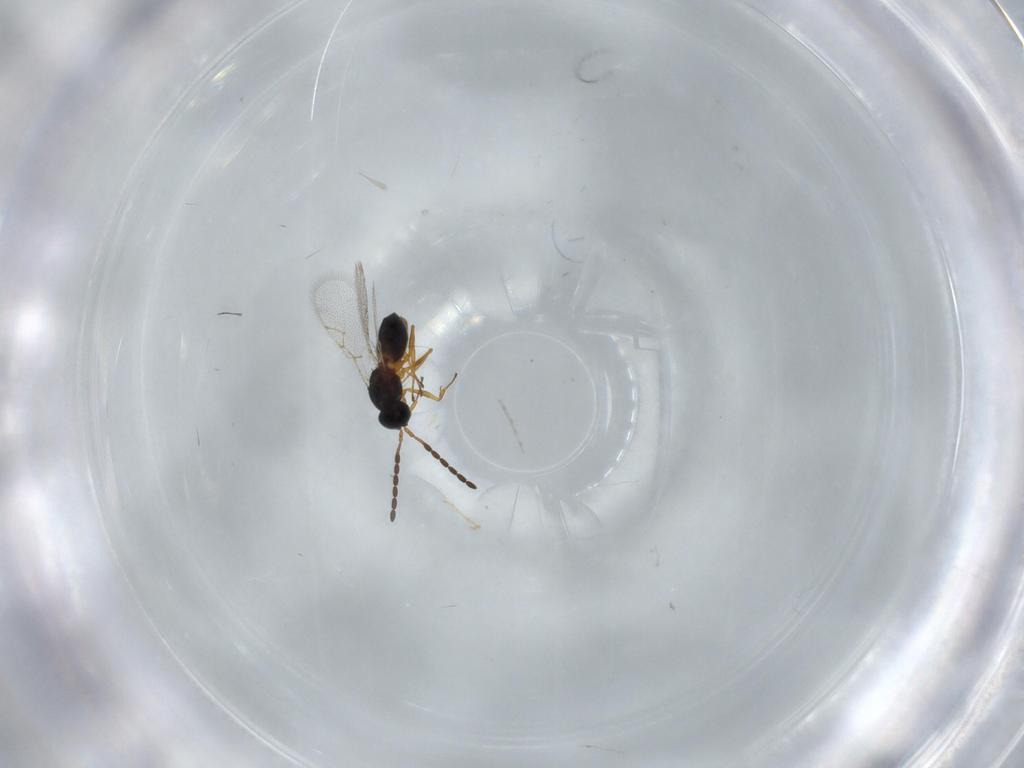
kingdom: Animalia
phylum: Arthropoda
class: Insecta
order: Hymenoptera
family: Figitidae
